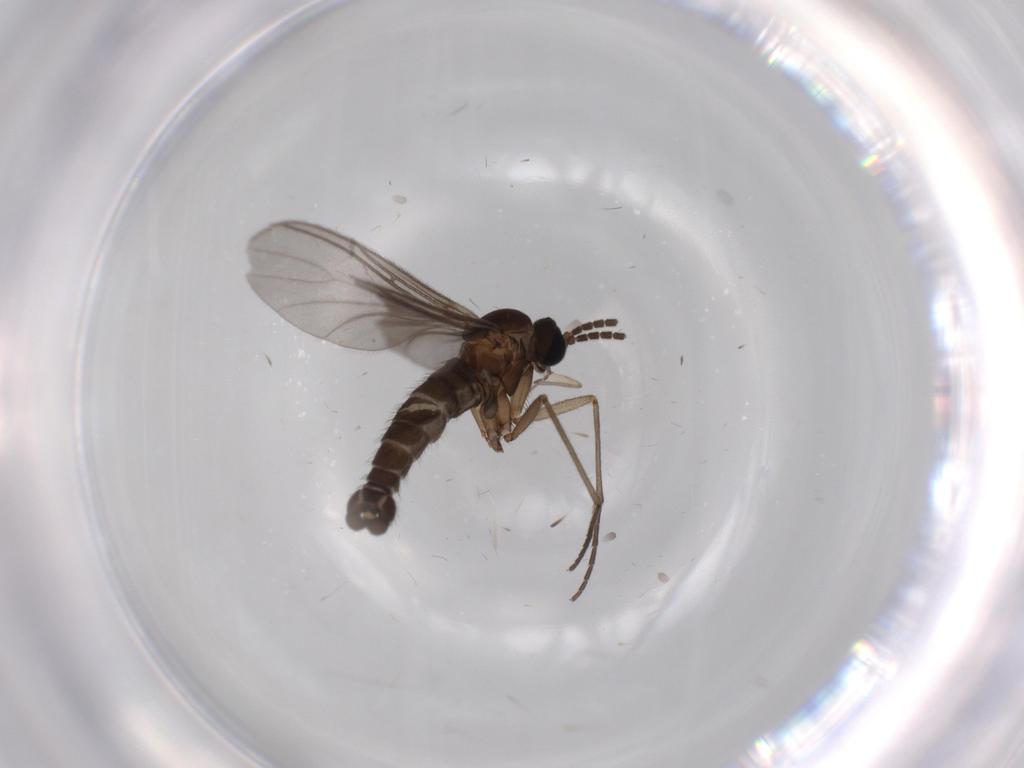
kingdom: Animalia
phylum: Arthropoda
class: Insecta
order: Diptera
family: Sciaridae
